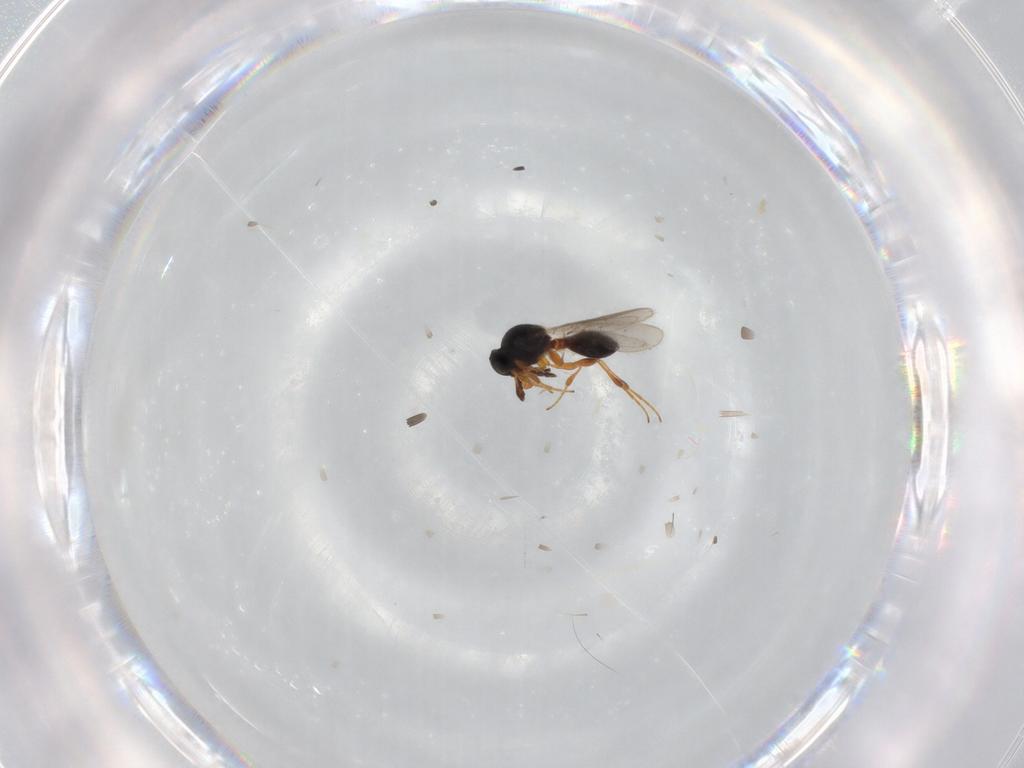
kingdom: Animalia
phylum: Arthropoda
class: Insecta
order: Hymenoptera
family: Platygastridae
